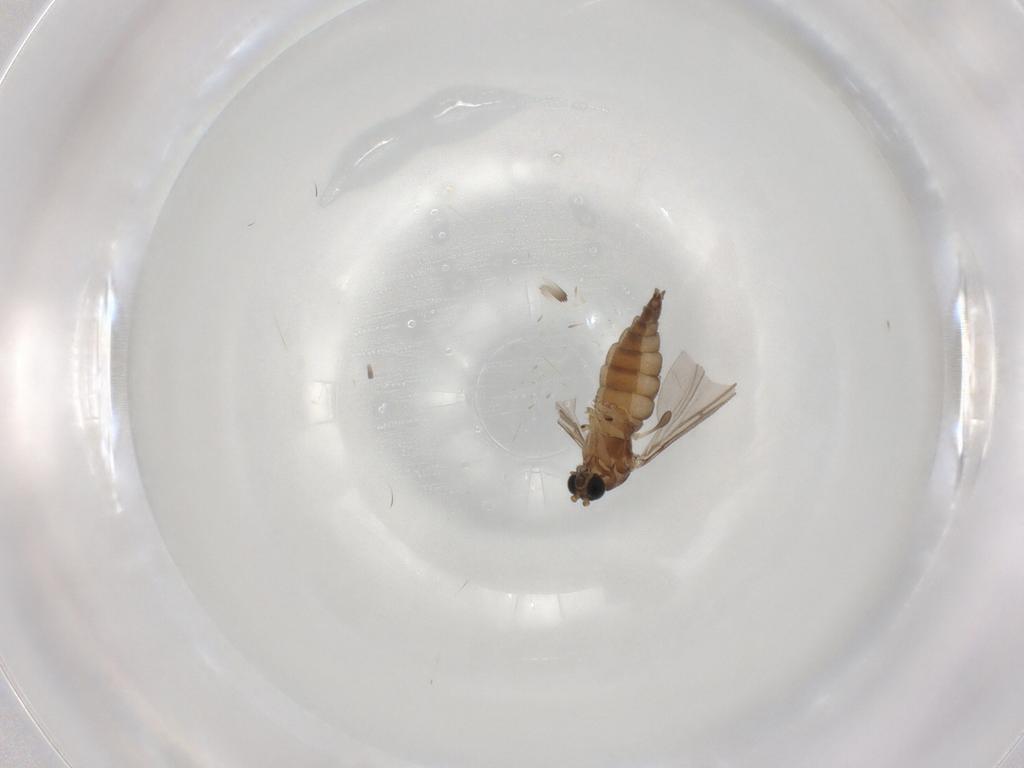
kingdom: Animalia
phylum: Arthropoda
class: Insecta
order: Diptera
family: Sciaridae
